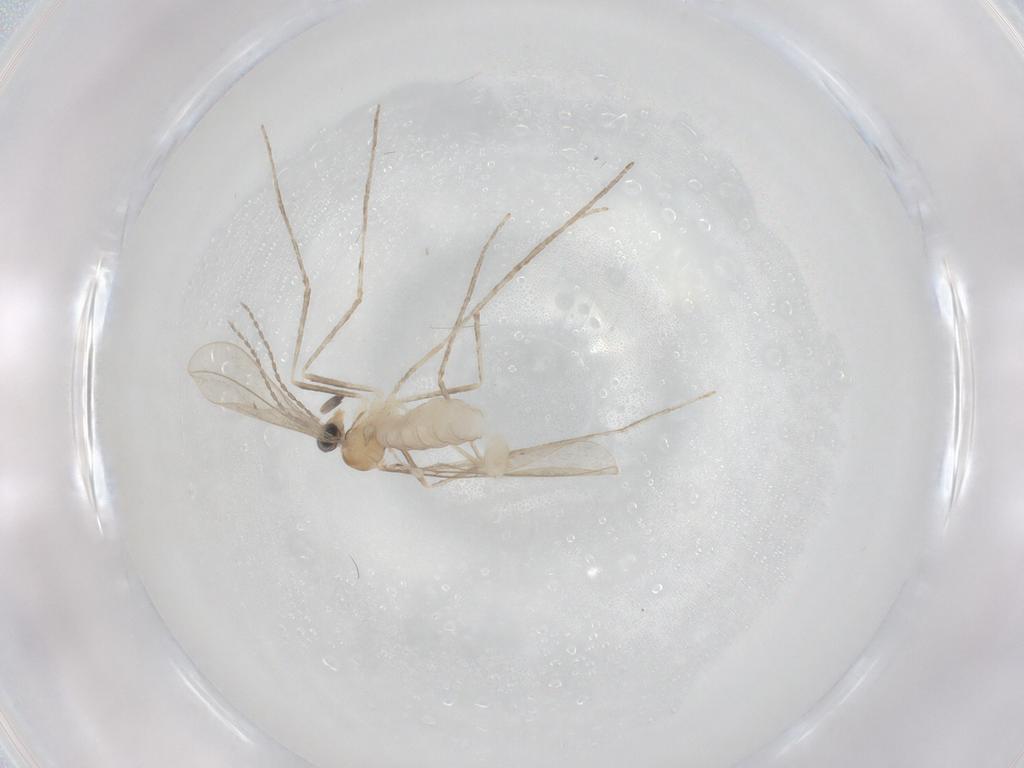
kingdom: Animalia
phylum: Arthropoda
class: Insecta
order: Diptera
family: Cecidomyiidae
